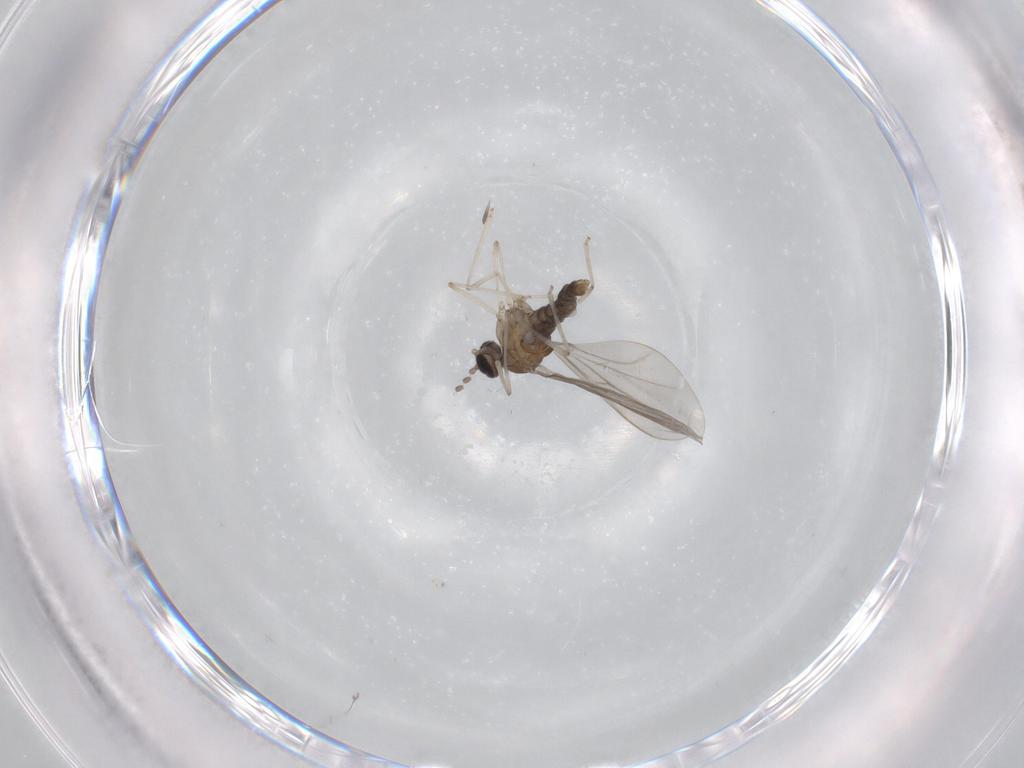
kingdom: Animalia
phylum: Arthropoda
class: Insecta
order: Diptera
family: Cecidomyiidae
